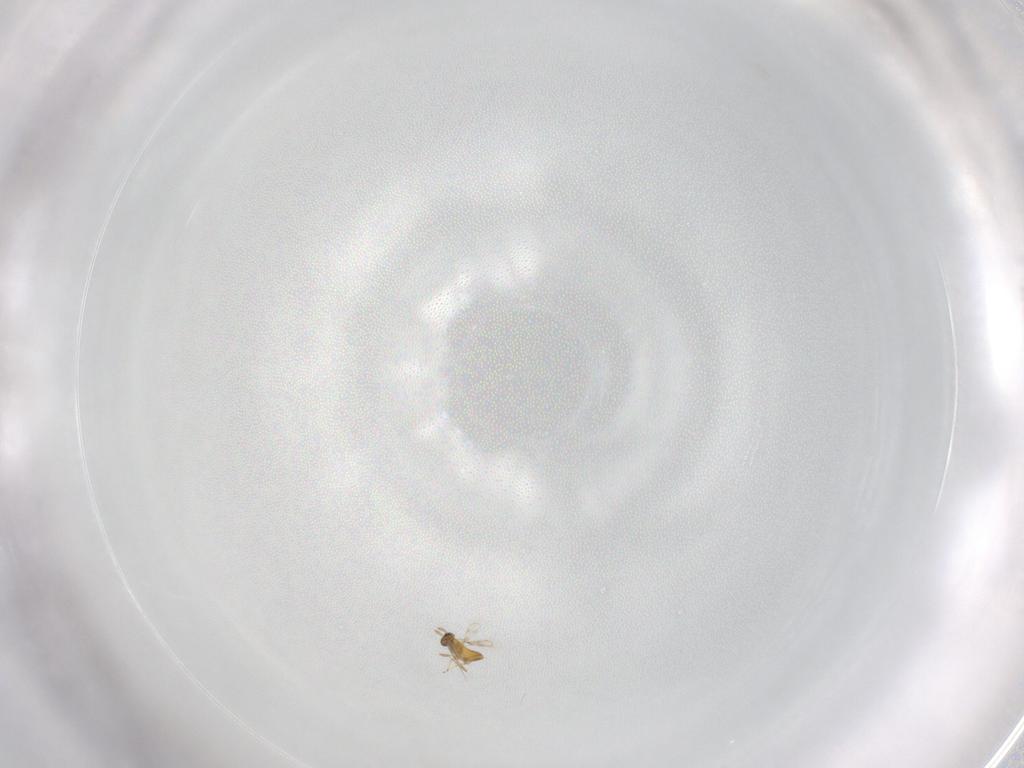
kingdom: Animalia
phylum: Arthropoda
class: Insecta
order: Hymenoptera
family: Trichogrammatidae
